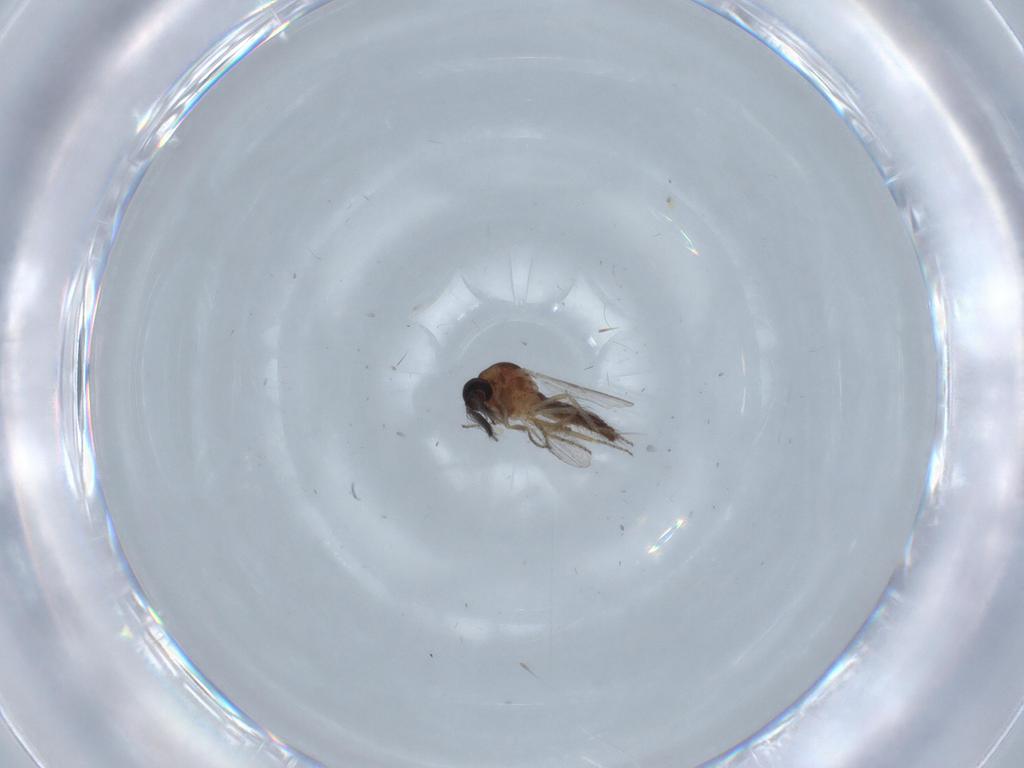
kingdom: Animalia
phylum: Arthropoda
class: Insecta
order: Diptera
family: Ceratopogonidae
